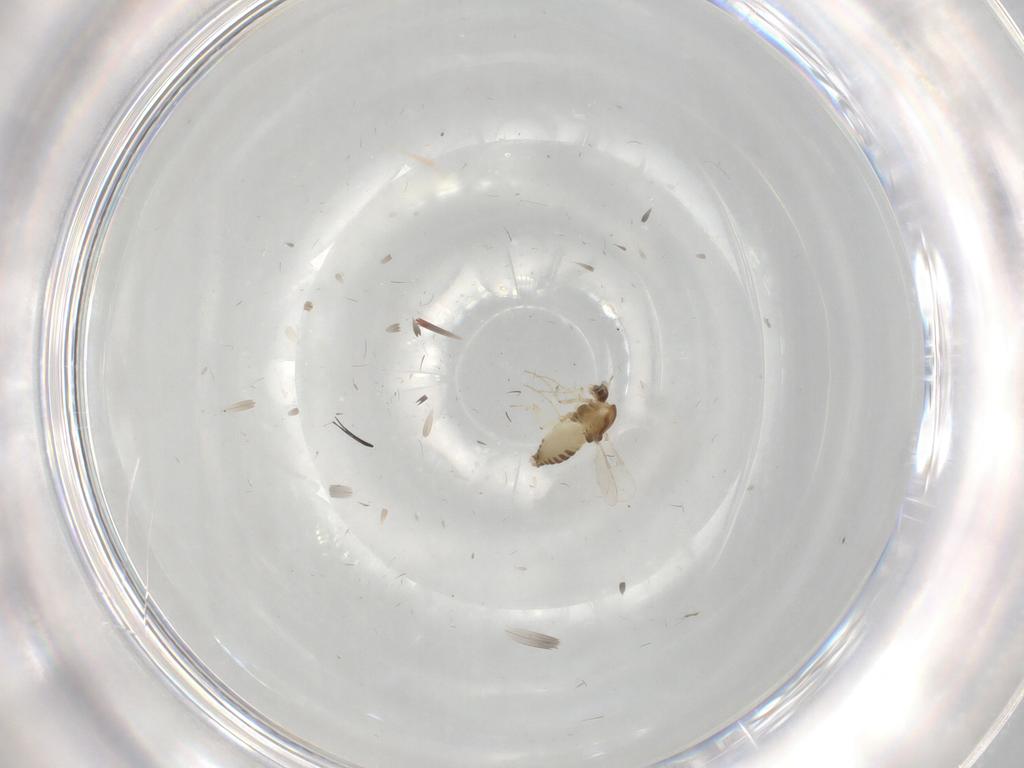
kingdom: Animalia
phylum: Arthropoda
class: Insecta
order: Diptera
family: Chironomidae
